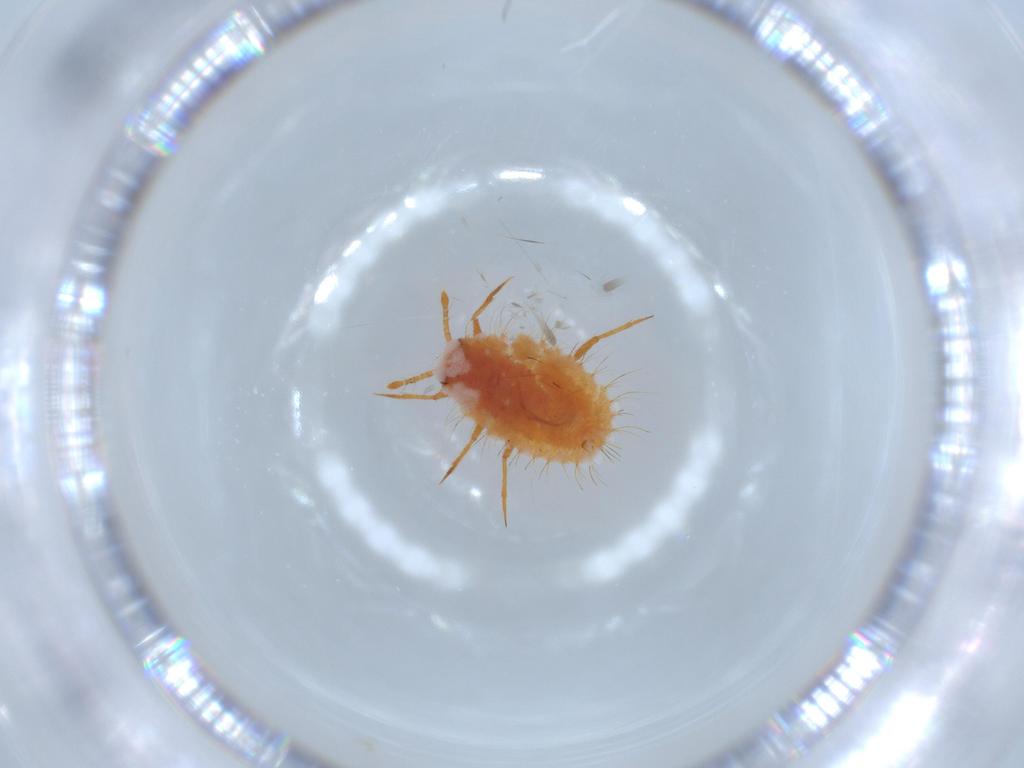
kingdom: Animalia
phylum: Arthropoda
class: Insecta
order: Hemiptera
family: Coccoidea_incertae_sedis
